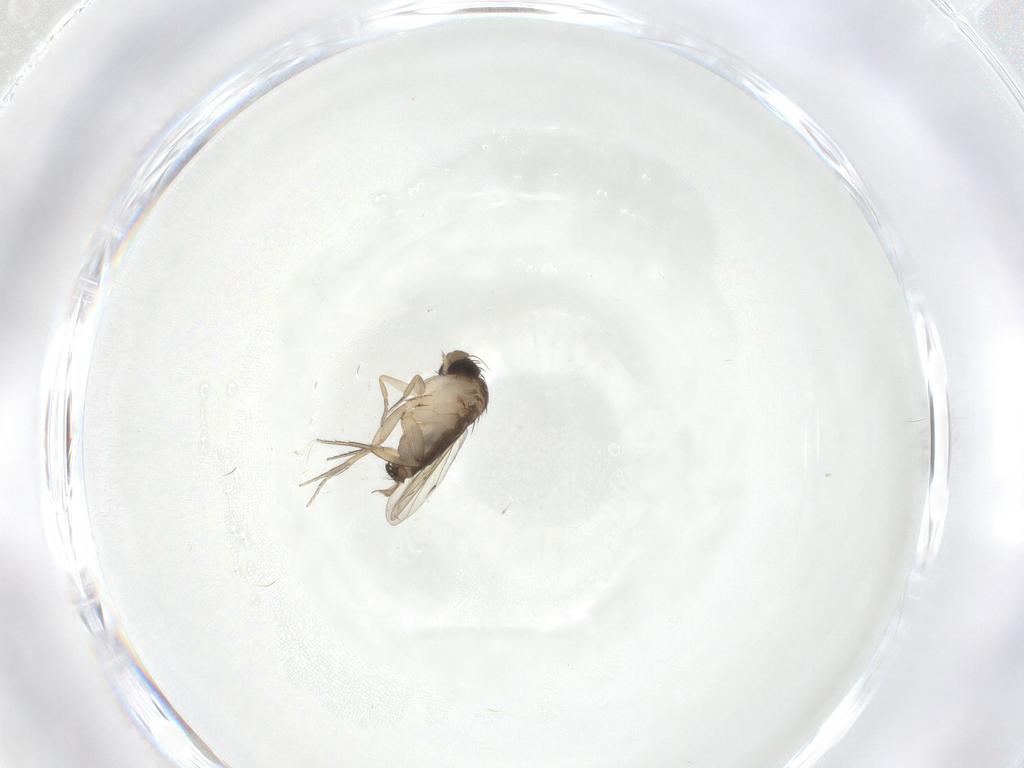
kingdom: Animalia
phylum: Arthropoda
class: Insecta
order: Diptera
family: Phoridae
